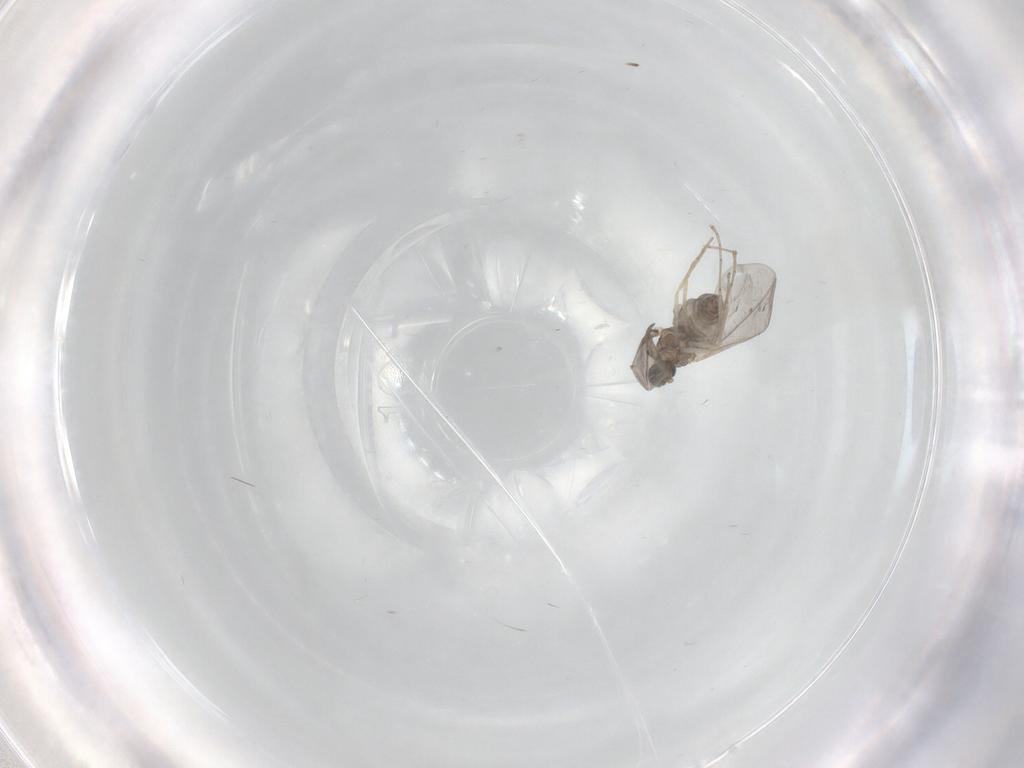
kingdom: Animalia
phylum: Arthropoda
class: Insecta
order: Diptera
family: Cecidomyiidae
